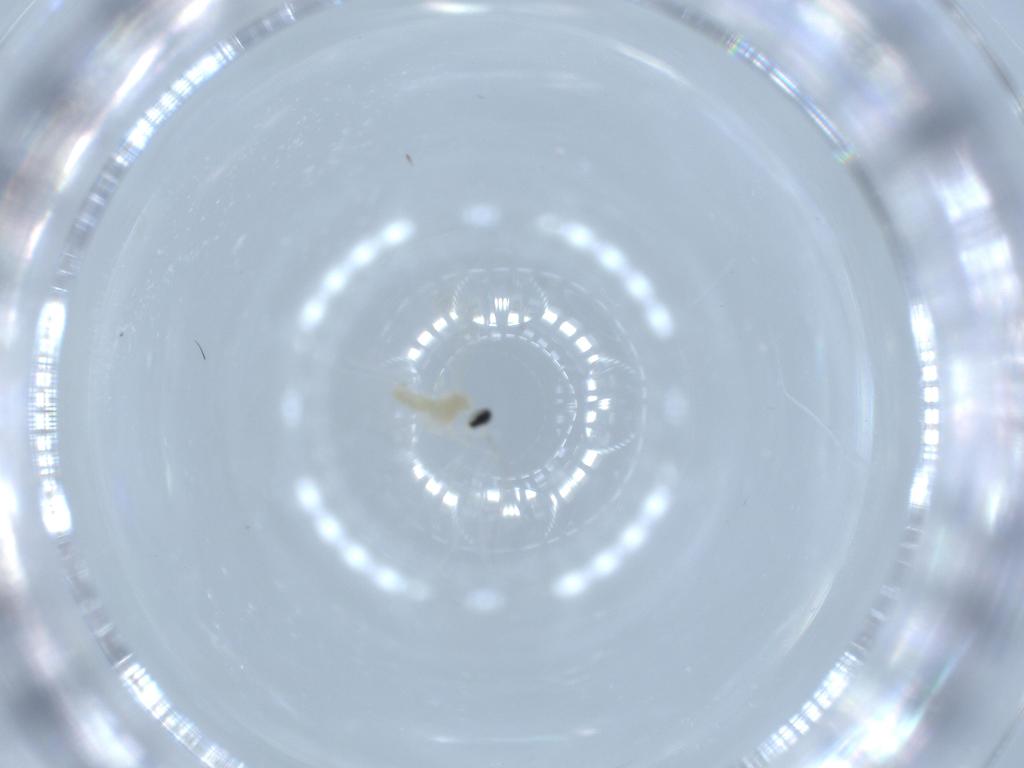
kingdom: Animalia
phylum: Arthropoda
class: Insecta
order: Diptera
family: Cecidomyiidae
